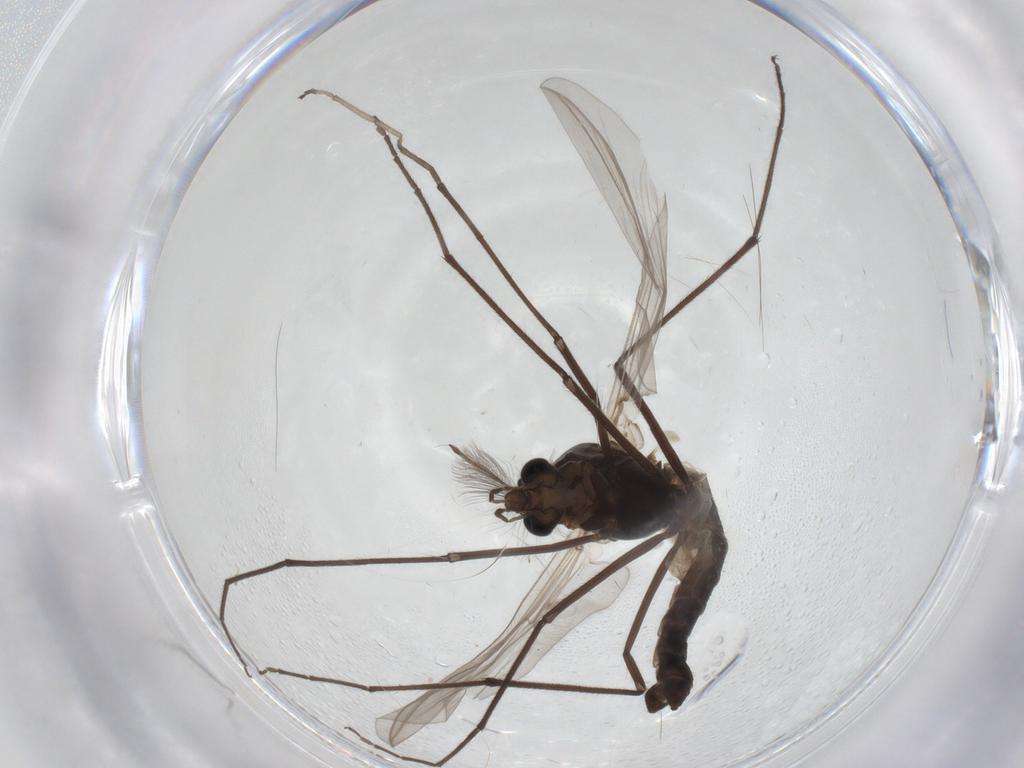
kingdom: Animalia
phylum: Arthropoda
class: Insecta
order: Diptera
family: Chironomidae
